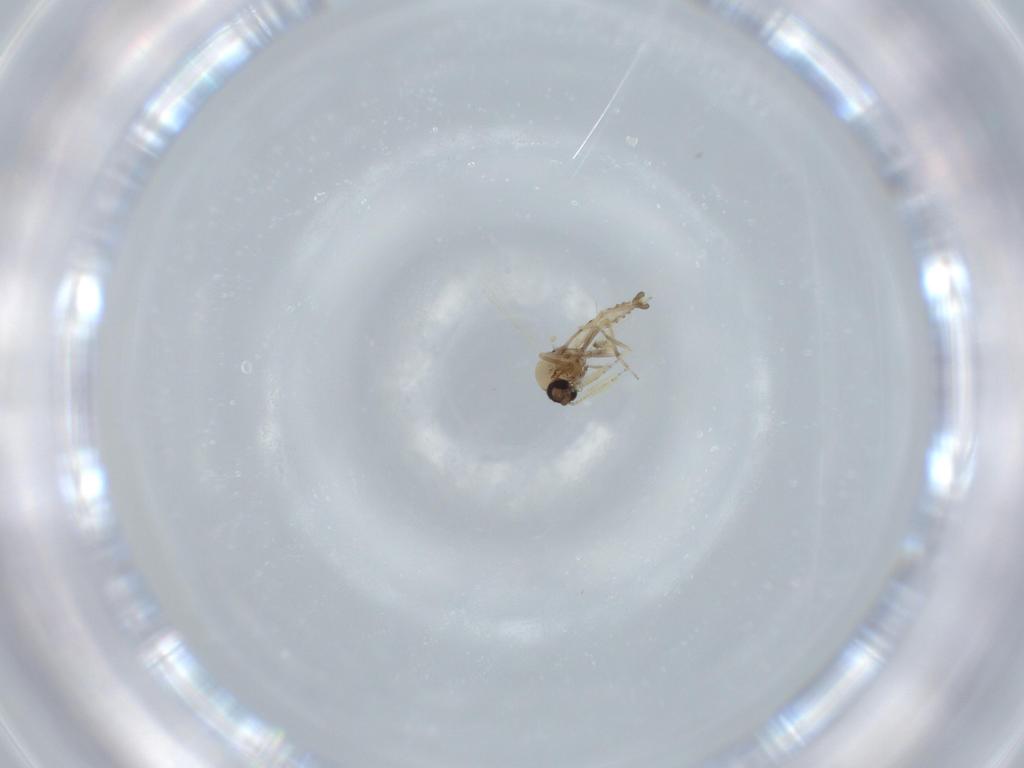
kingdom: Animalia
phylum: Arthropoda
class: Insecta
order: Diptera
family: Ceratopogonidae
